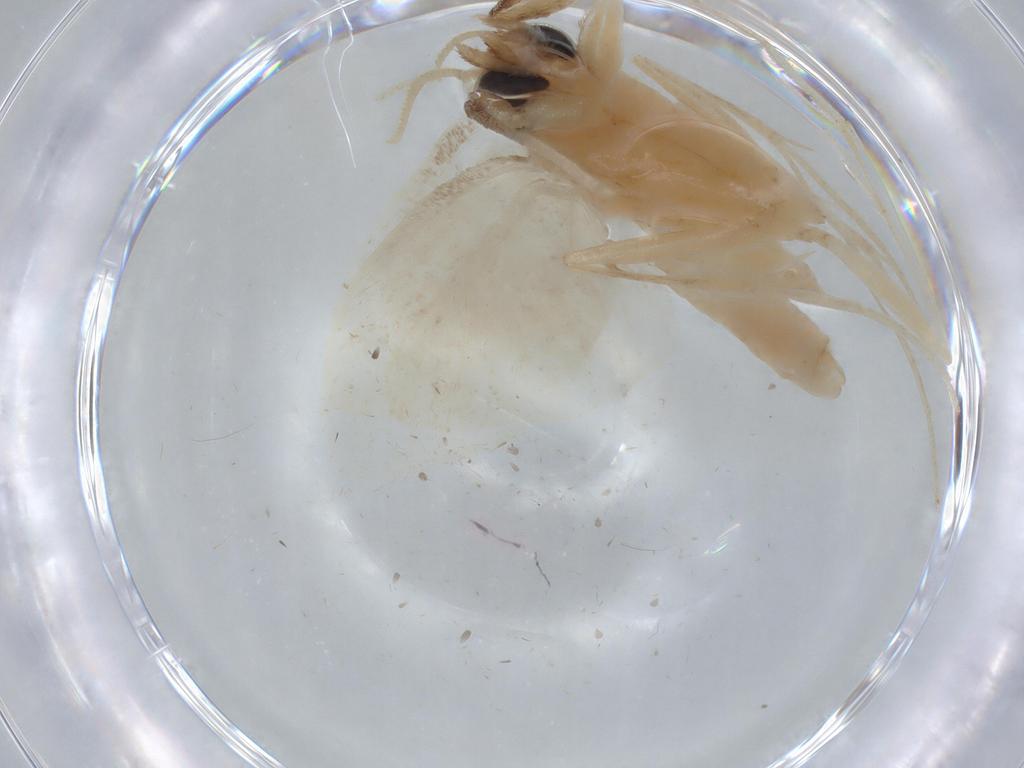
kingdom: Animalia
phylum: Arthropoda
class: Insecta
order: Lepidoptera
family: Crambidae
